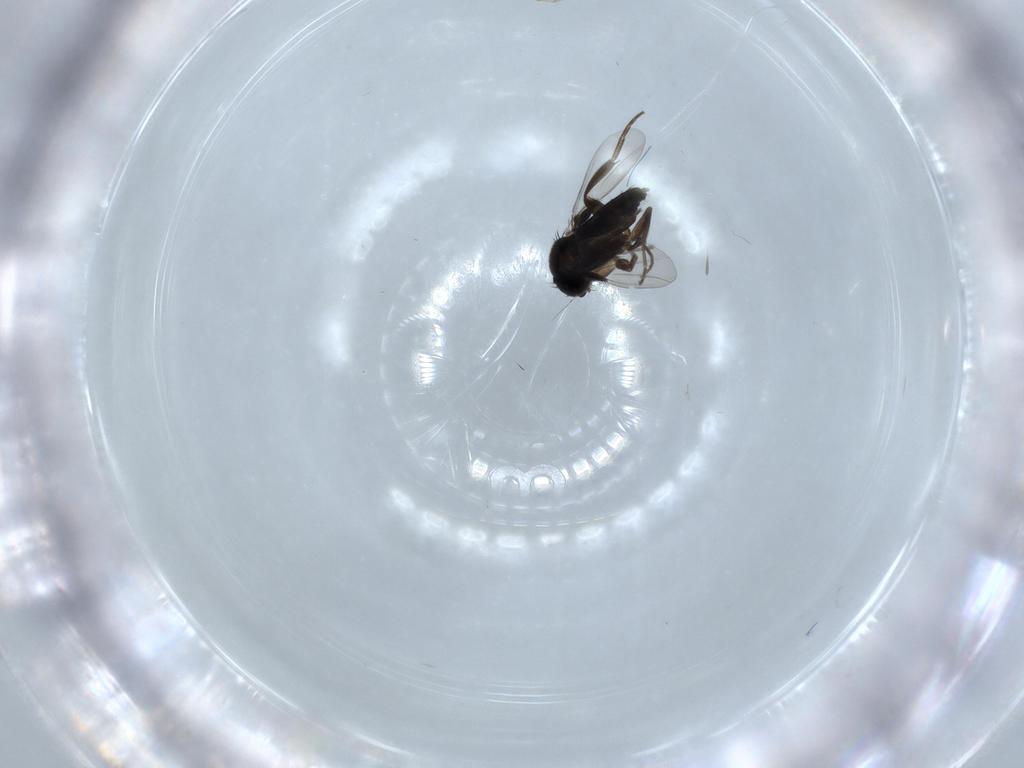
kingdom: Animalia
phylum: Arthropoda
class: Insecta
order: Diptera
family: Phoridae
